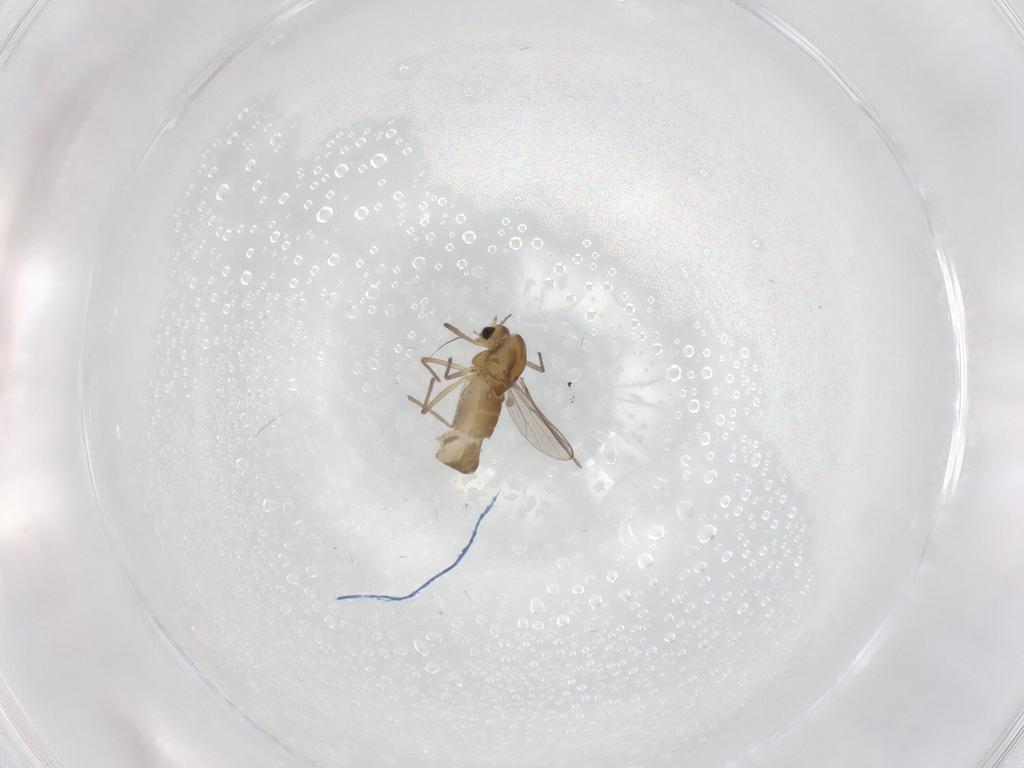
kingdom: Animalia
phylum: Arthropoda
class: Insecta
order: Diptera
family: Chironomidae
